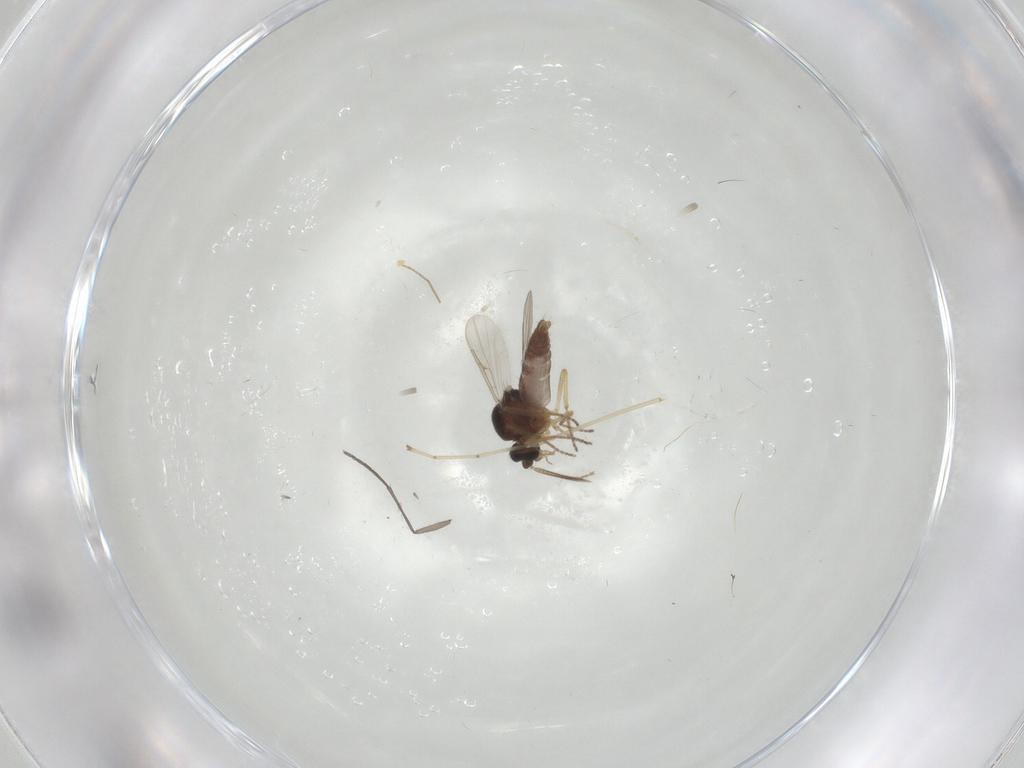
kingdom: Animalia
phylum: Arthropoda
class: Insecta
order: Diptera
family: Ceratopogonidae
